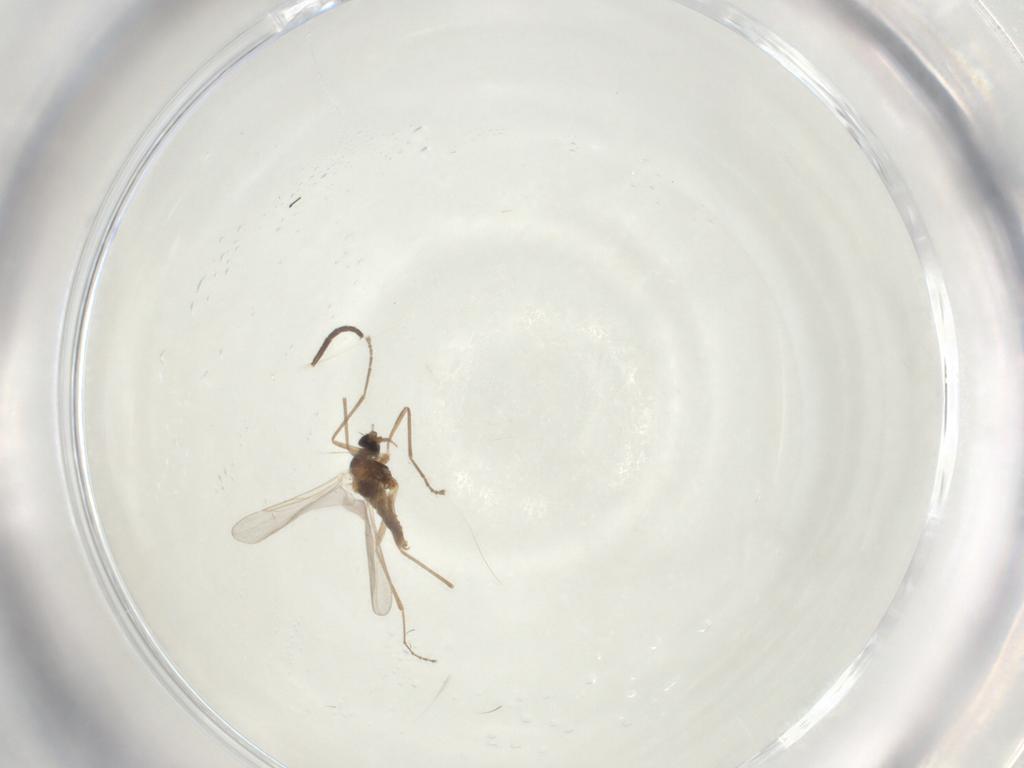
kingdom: Animalia
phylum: Arthropoda
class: Insecta
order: Diptera
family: Cecidomyiidae
